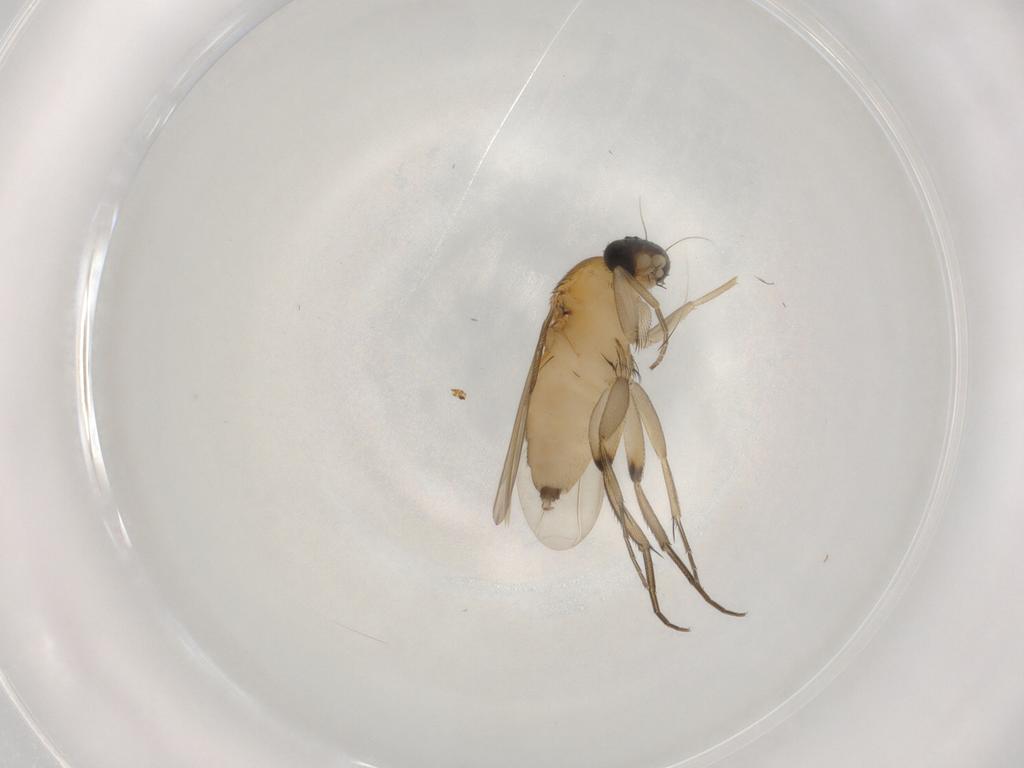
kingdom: Animalia
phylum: Arthropoda
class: Insecta
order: Diptera
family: Phoridae
